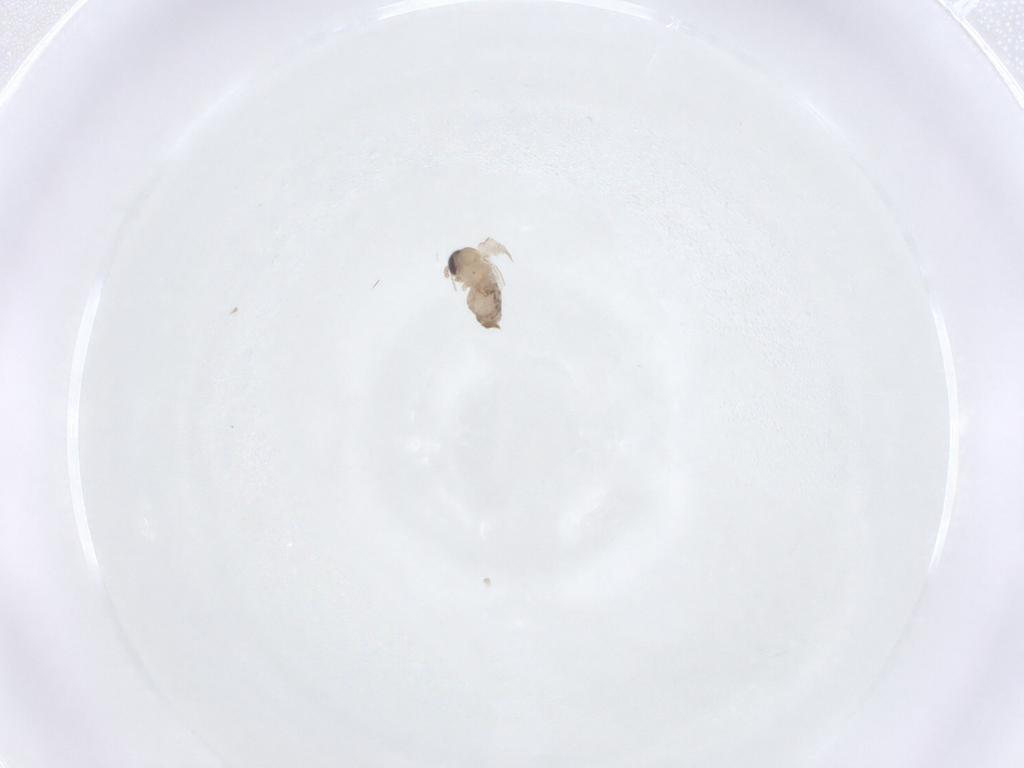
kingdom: Animalia
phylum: Arthropoda
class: Insecta
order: Diptera
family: Psychodidae
